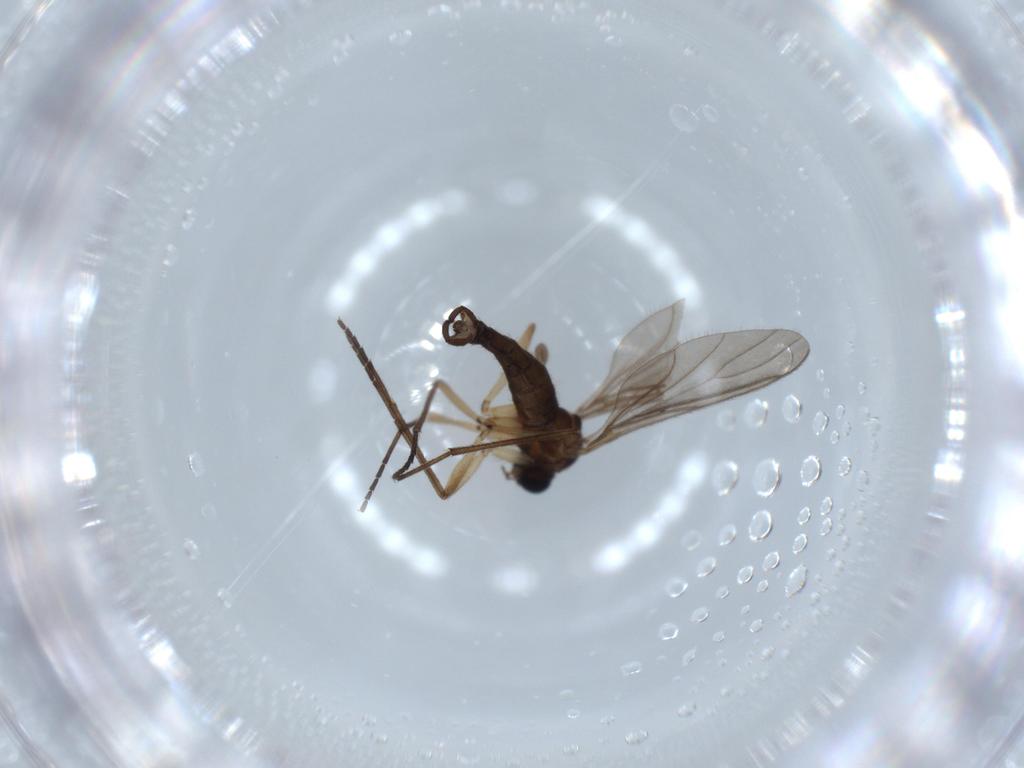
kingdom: Animalia
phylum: Arthropoda
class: Insecta
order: Diptera
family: Sciaridae
